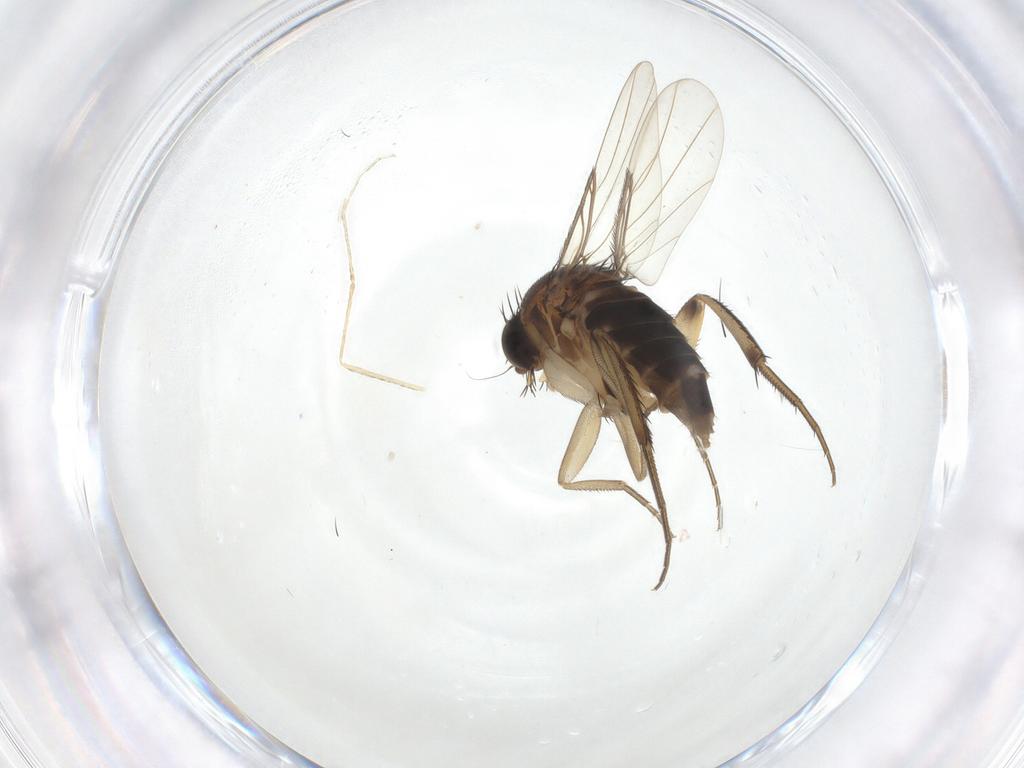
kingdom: Animalia
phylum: Arthropoda
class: Insecta
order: Diptera
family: Phoridae
